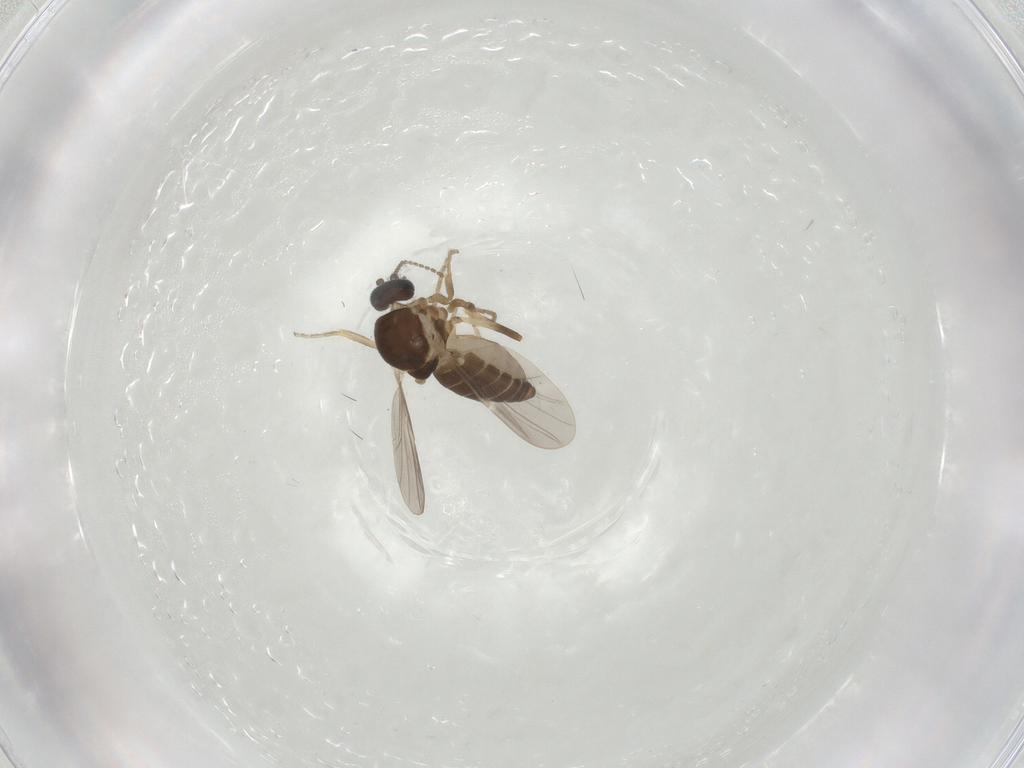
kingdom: Animalia
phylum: Arthropoda
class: Insecta
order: Diptera
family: Ceratopogonidae
